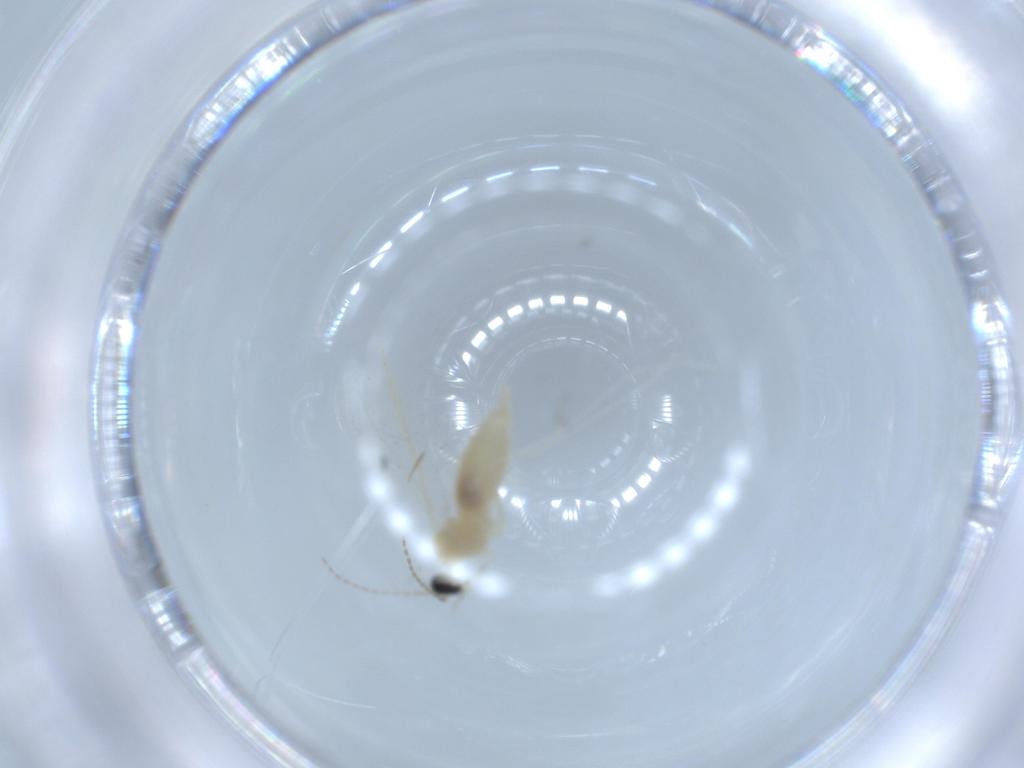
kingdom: Animalia
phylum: Arthropoda
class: Insecta
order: Diptera
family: Cecidomyiidae
